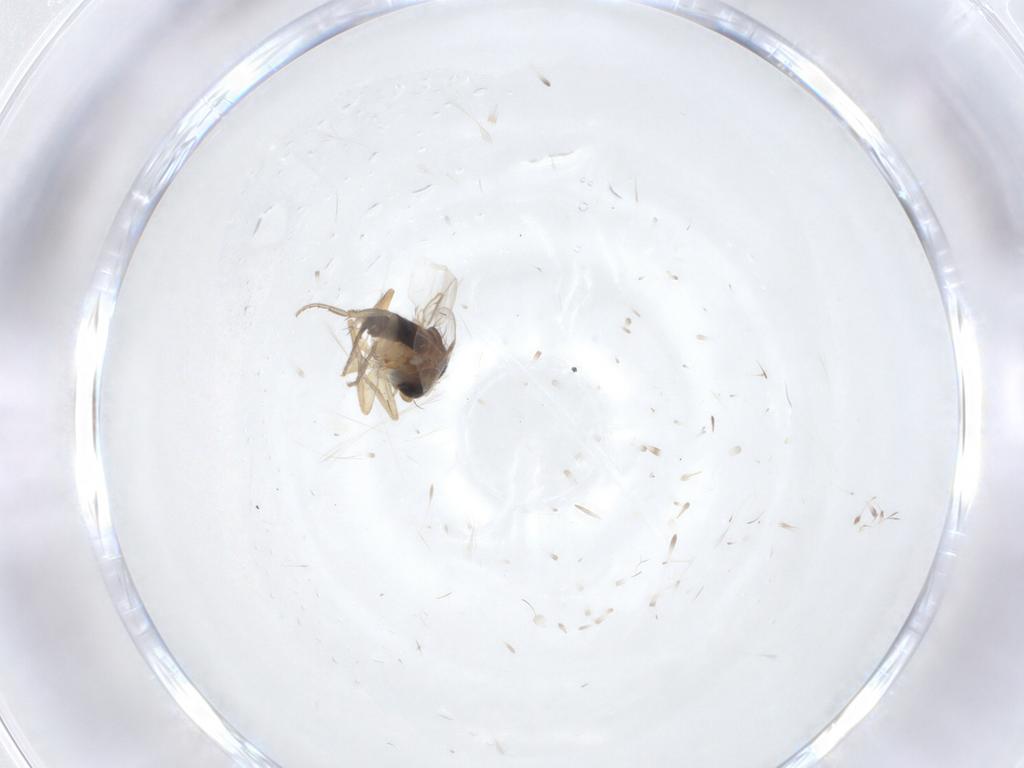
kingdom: Animalia
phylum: Arthropoda
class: Insecta
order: Diptera
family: Phoridae
